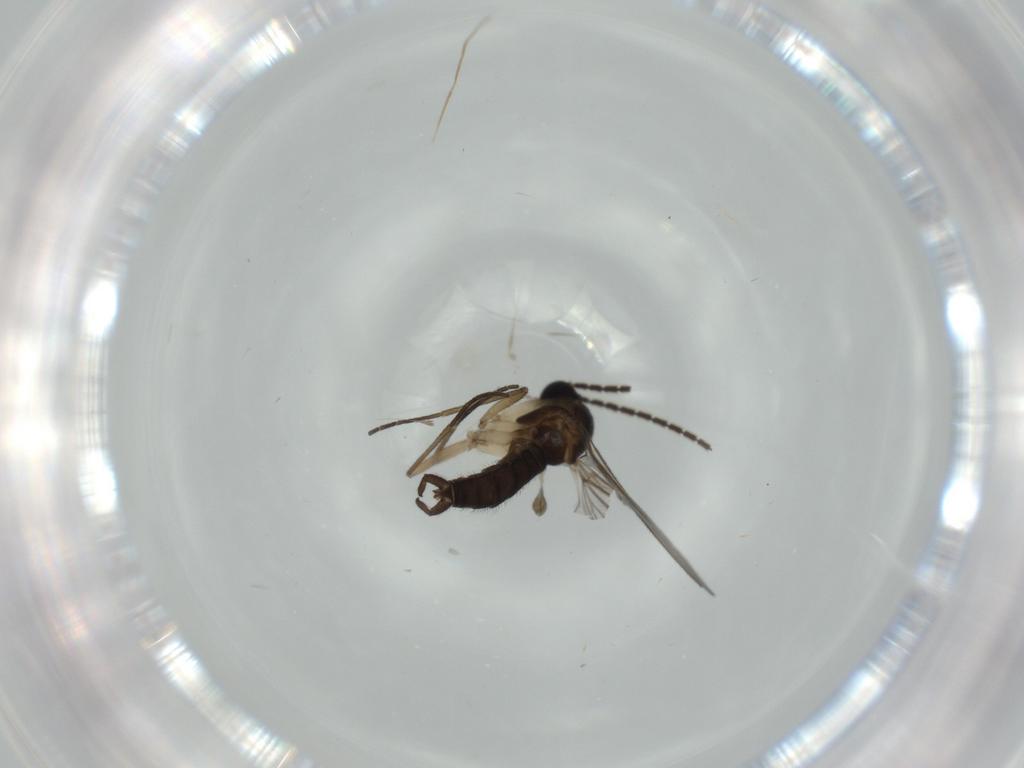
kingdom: Animalia
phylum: Arthropoda
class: Insecta
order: Diptera
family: Sciaridae
